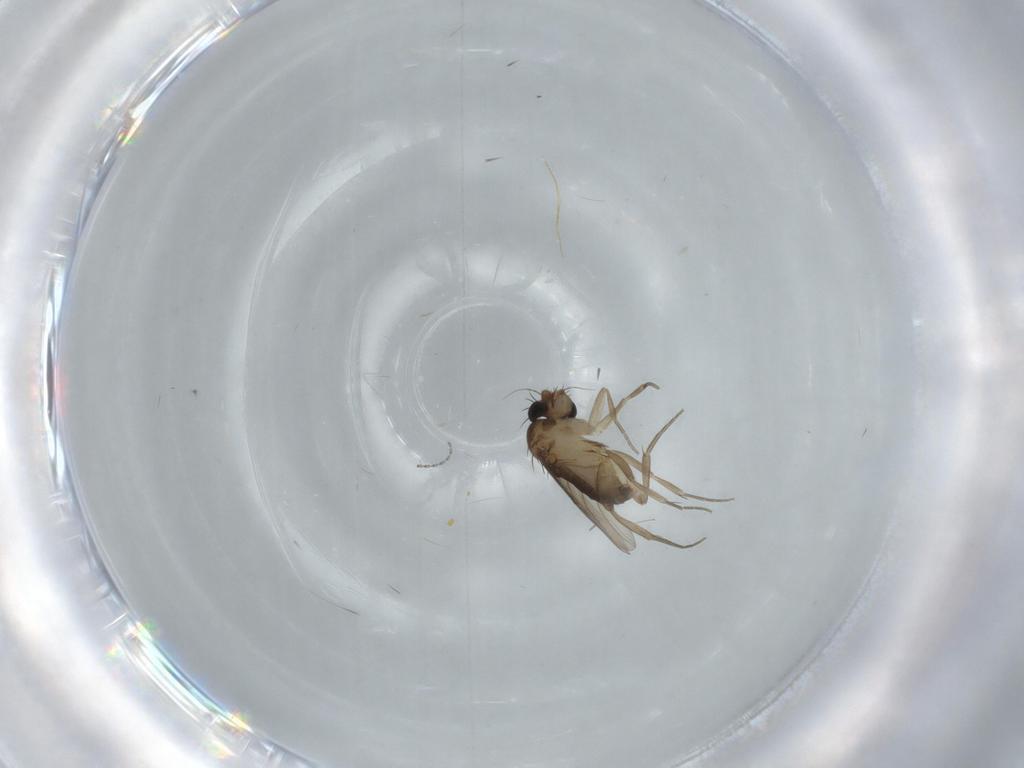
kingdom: Animalia
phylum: Arthropoda
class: Insecta
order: Diptera
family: Phoridae
